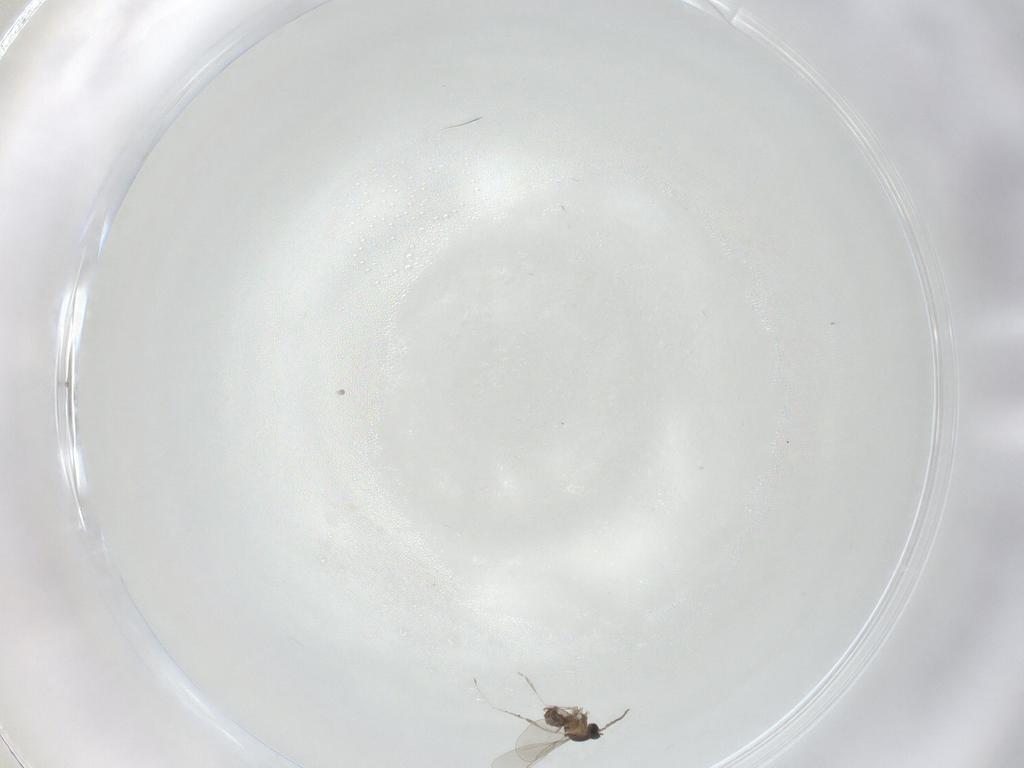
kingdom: Animalia
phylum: Arthropoda
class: Insecta
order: Diptera
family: Cecidomyiidae
